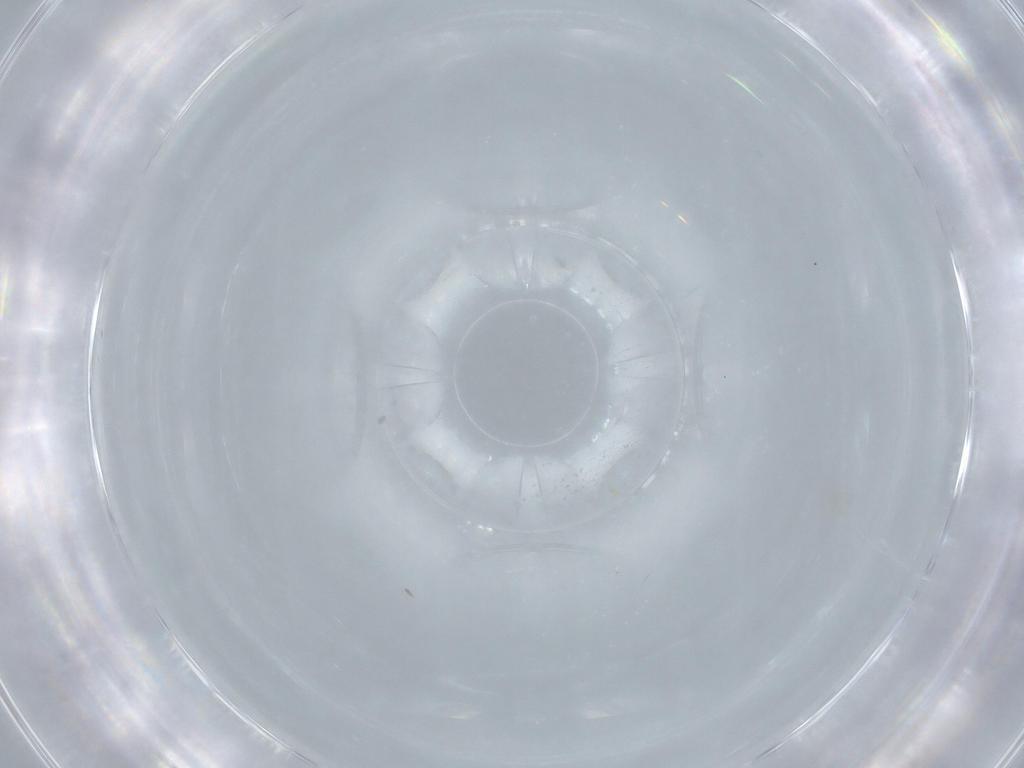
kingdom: Animalia
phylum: Arthropoda
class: Insecta
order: Hymenoptera
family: Mymaridae
